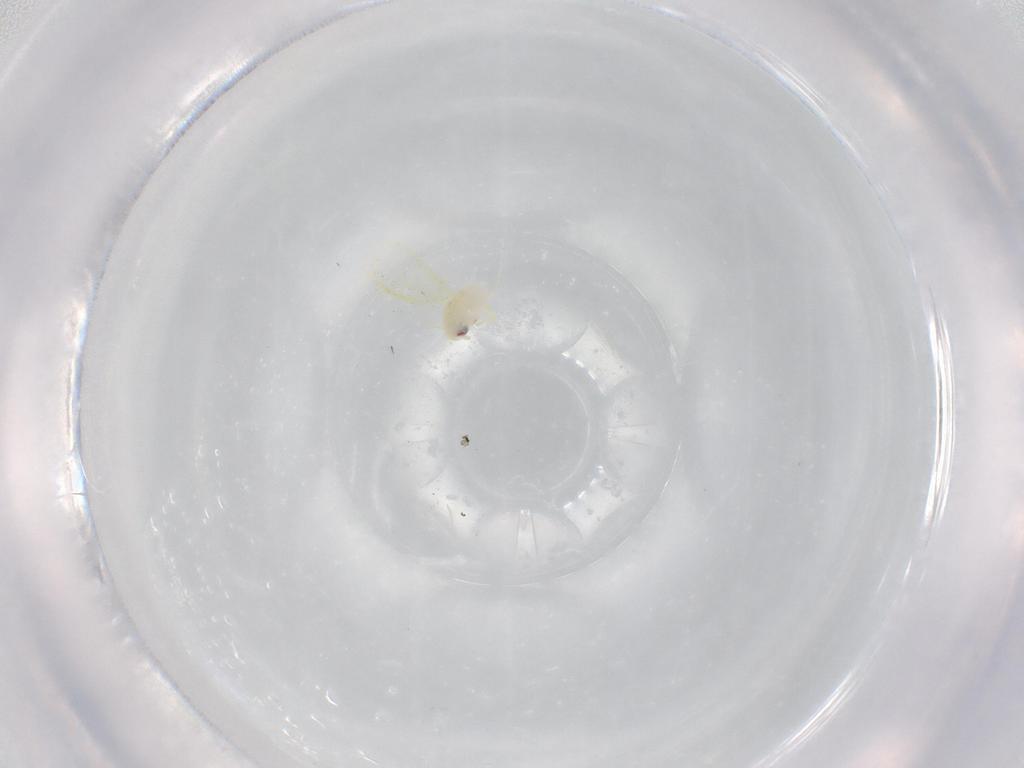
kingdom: Animalia
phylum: Arthropoda
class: Insecta
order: Hemiptera
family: Aleyrodidae
